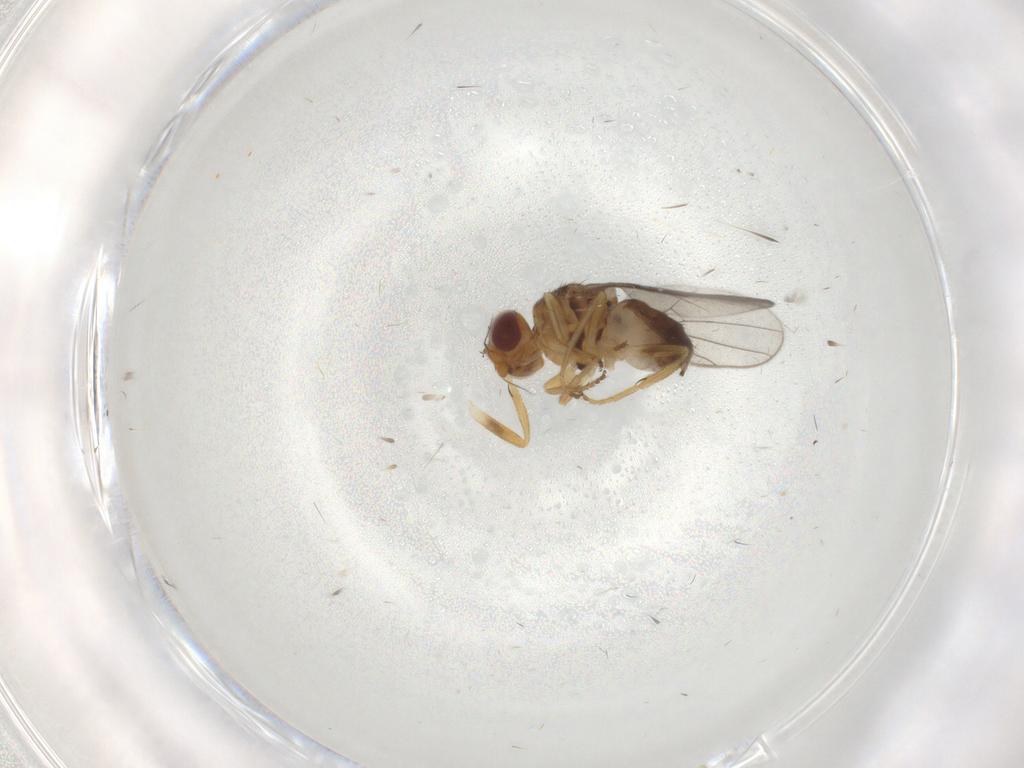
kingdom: Animalia
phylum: Arthropoda
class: Insecta
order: Diptera
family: Chloropidae
